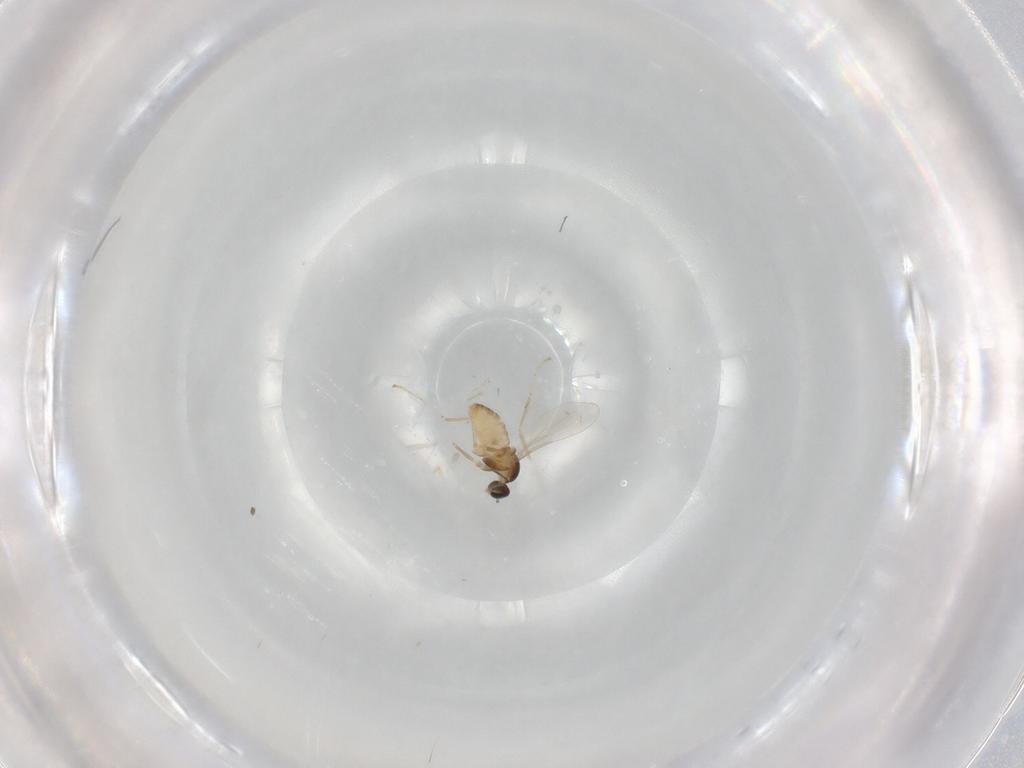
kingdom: Animalia
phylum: Arthropoda
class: Insecta
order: Diptera
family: Cecidomyiidae
